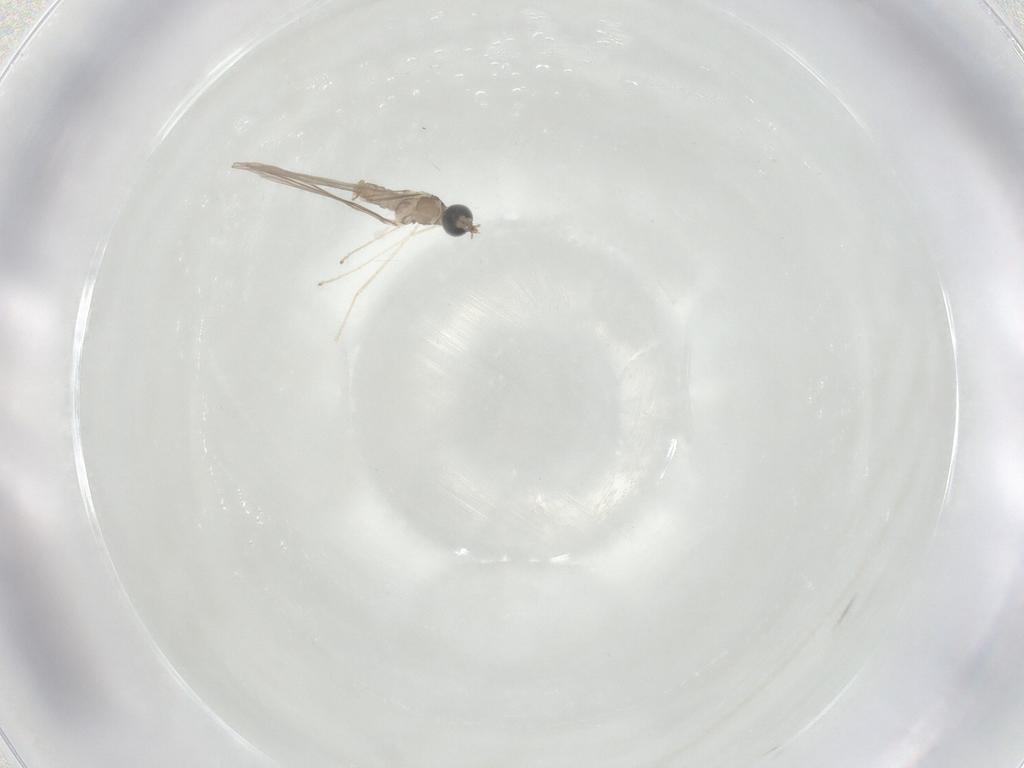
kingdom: Animalia
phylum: Arthropoda
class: Insecta
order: Diptera
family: Cecidomyiidae
